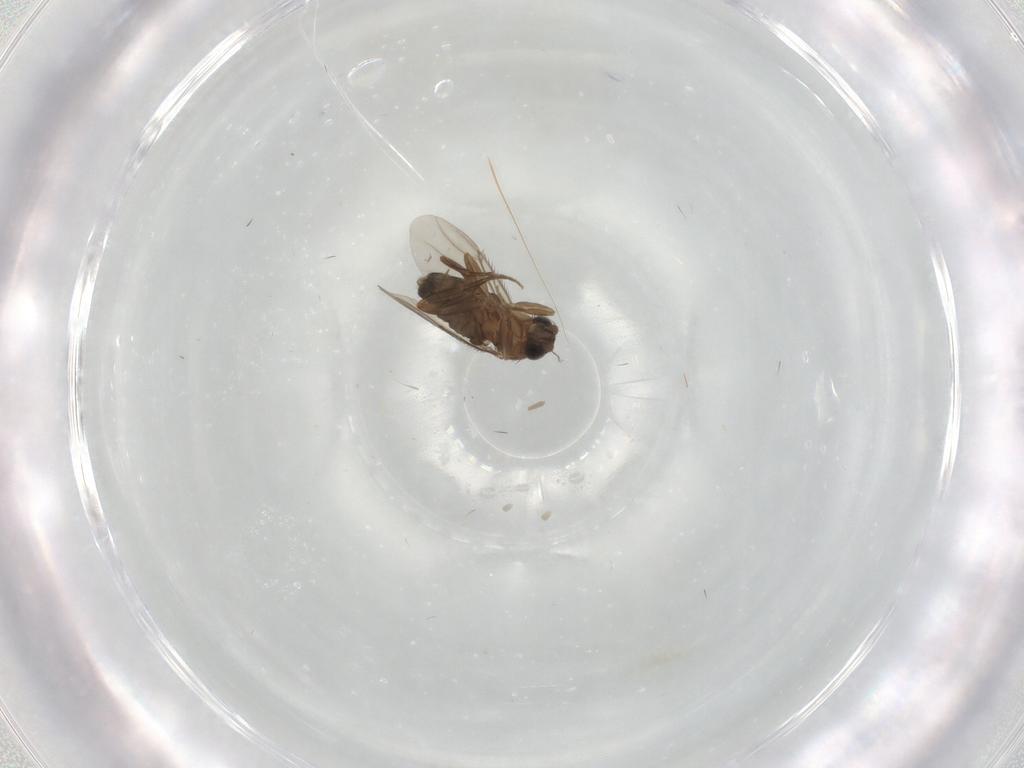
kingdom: Animalia
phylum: Arthropoda
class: Insecta
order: Diptera
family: Phoridae
